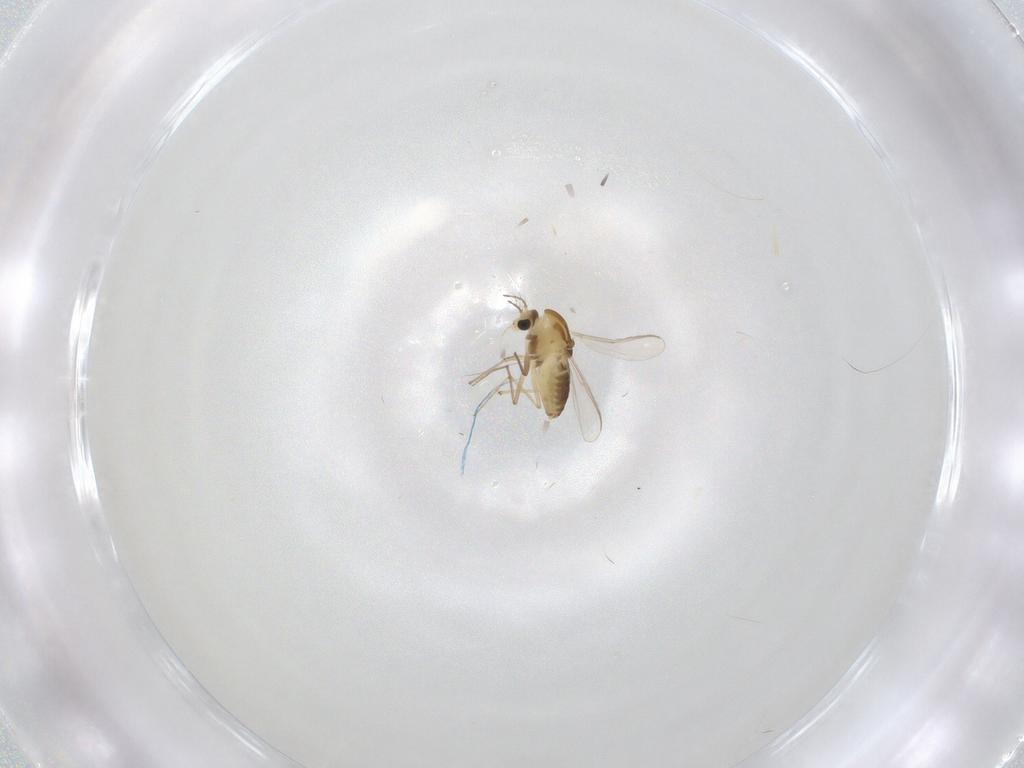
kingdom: Animalia
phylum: Arthropoda
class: Insecta
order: Diptera
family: Chironomidae
